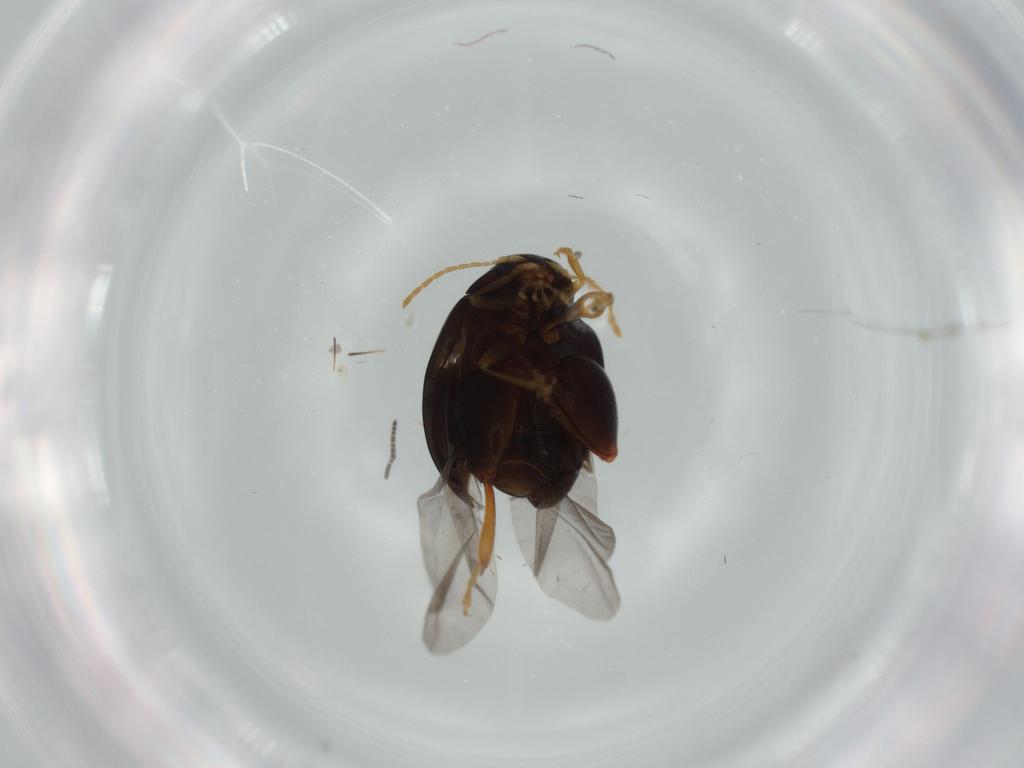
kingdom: Animalia
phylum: Arthropoda
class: Insecta
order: Coleoptera
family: Chrysomelidae
